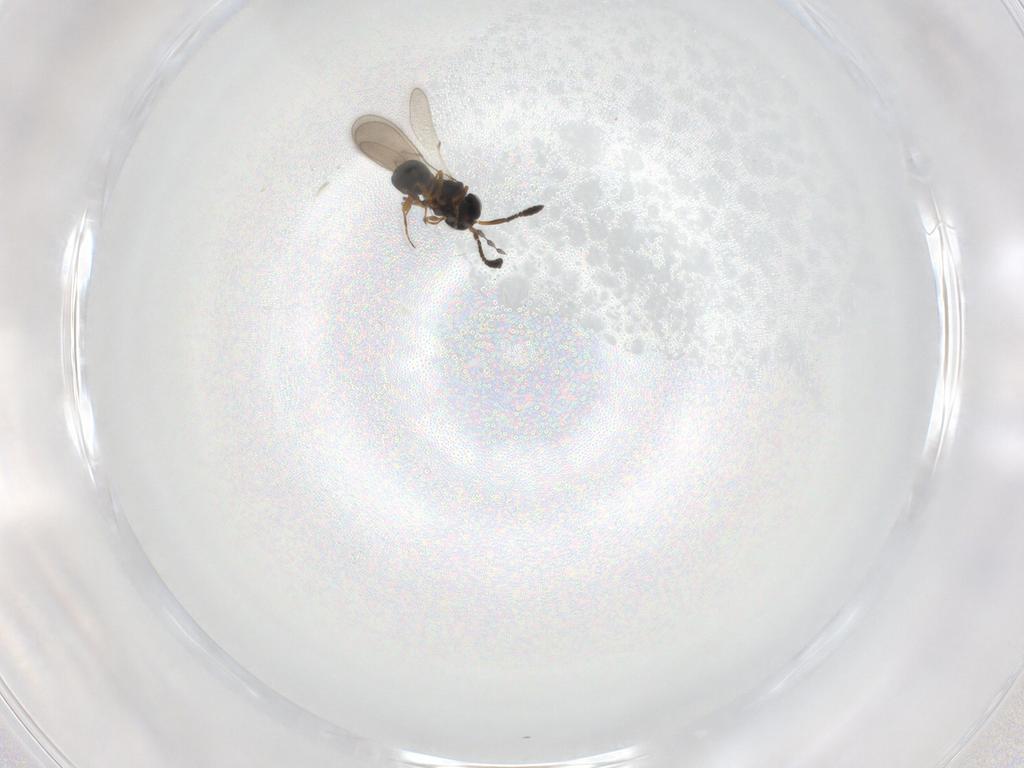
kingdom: Animalia
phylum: Arthropoda
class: Insecta
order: Hymenoptera
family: Scelionidae
